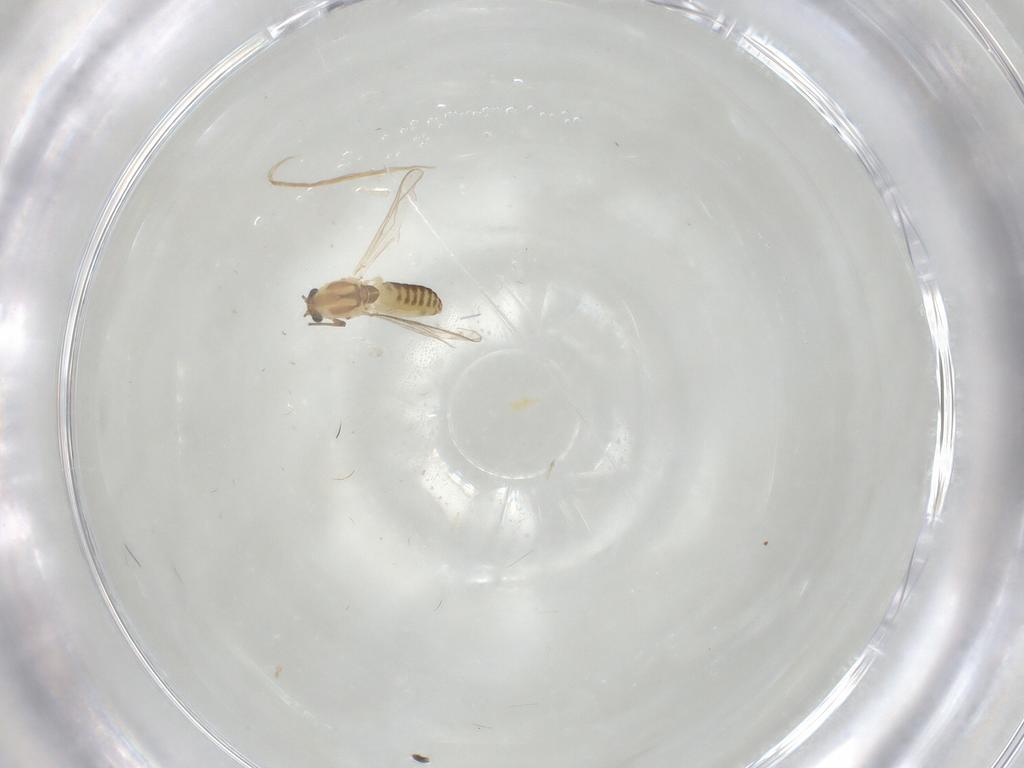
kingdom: Animalia
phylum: Arthropoda
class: Insecta
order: Diptera
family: Chironomidae
